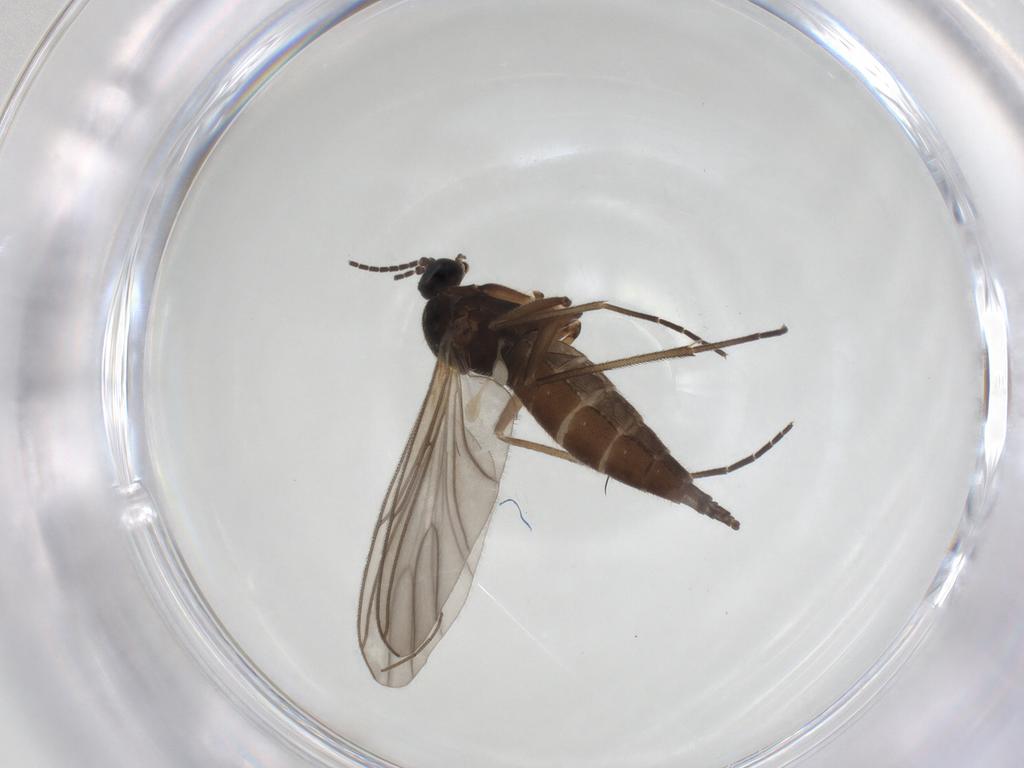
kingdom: Animalia
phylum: Arthropoda
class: Insecta
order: Diptera
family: Sciaridae
